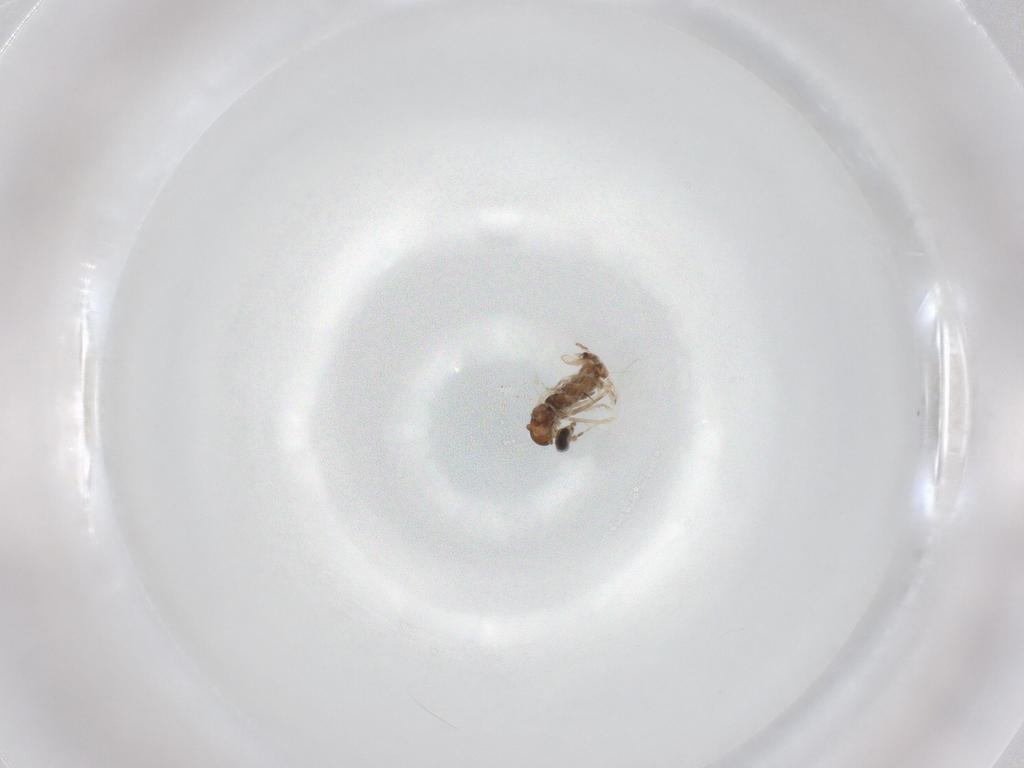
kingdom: Animalia
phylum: Arthropoda
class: Insecta
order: Diptera
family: Cecidomyiidae
